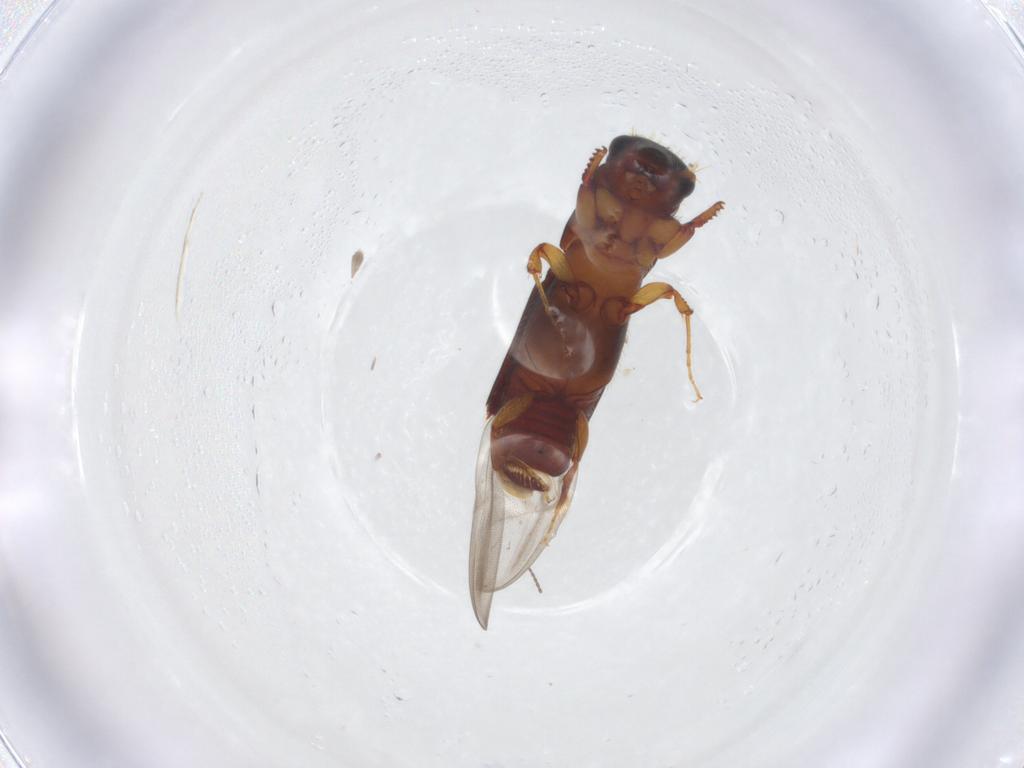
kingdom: Animalia
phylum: Arthropoda
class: Insecta
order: Coleoptera
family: Curculionidae
